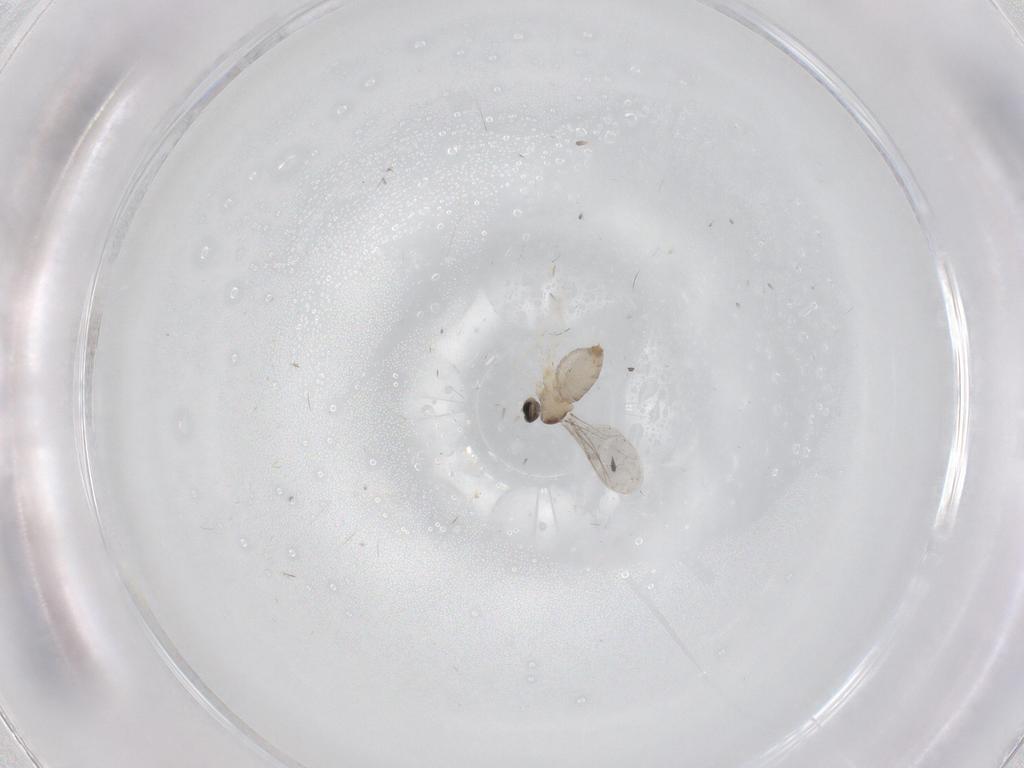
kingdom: Animalia
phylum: Arthropoda
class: Insecta
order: Diptera
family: Cecidomyiidae
